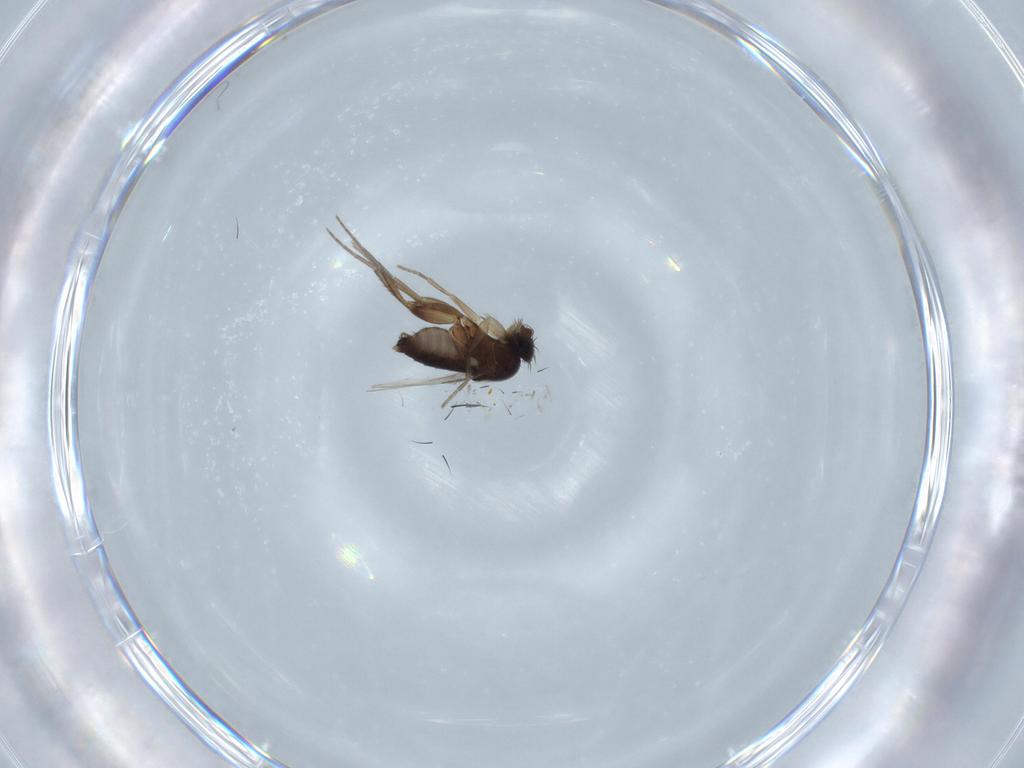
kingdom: Animalia
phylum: Arthropoda
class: Insecta
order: Diptera
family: Phoridae
